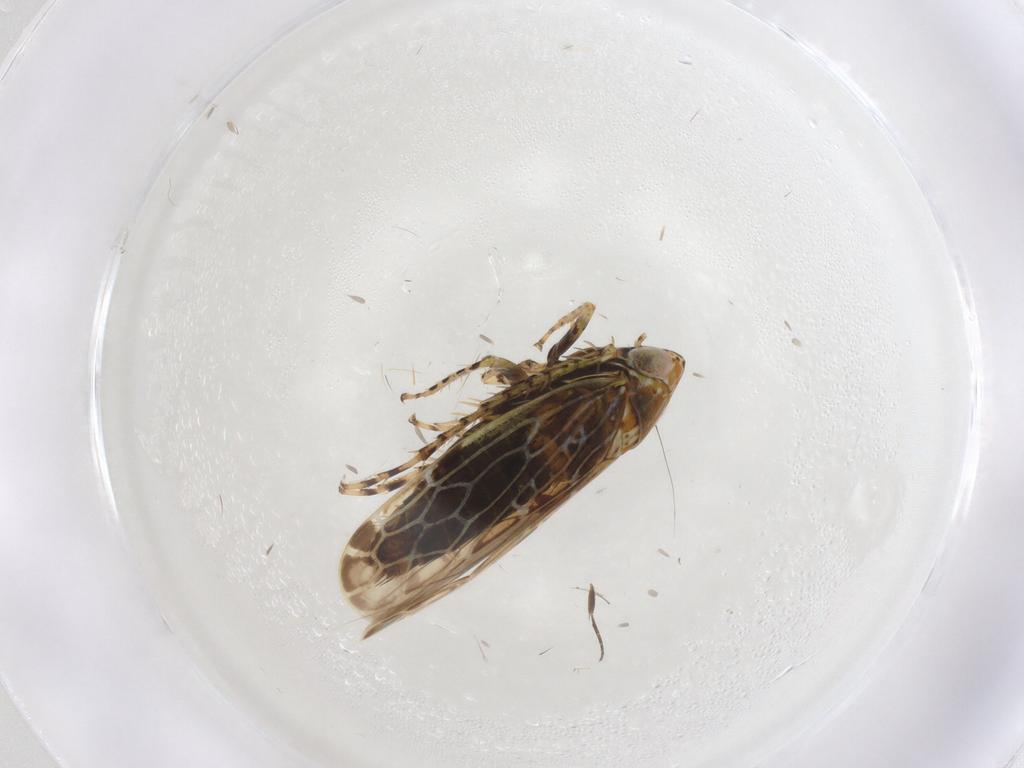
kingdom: Animalia
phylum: Arthropoda
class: Insecta
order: Hemiptera
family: Cicadellidae
